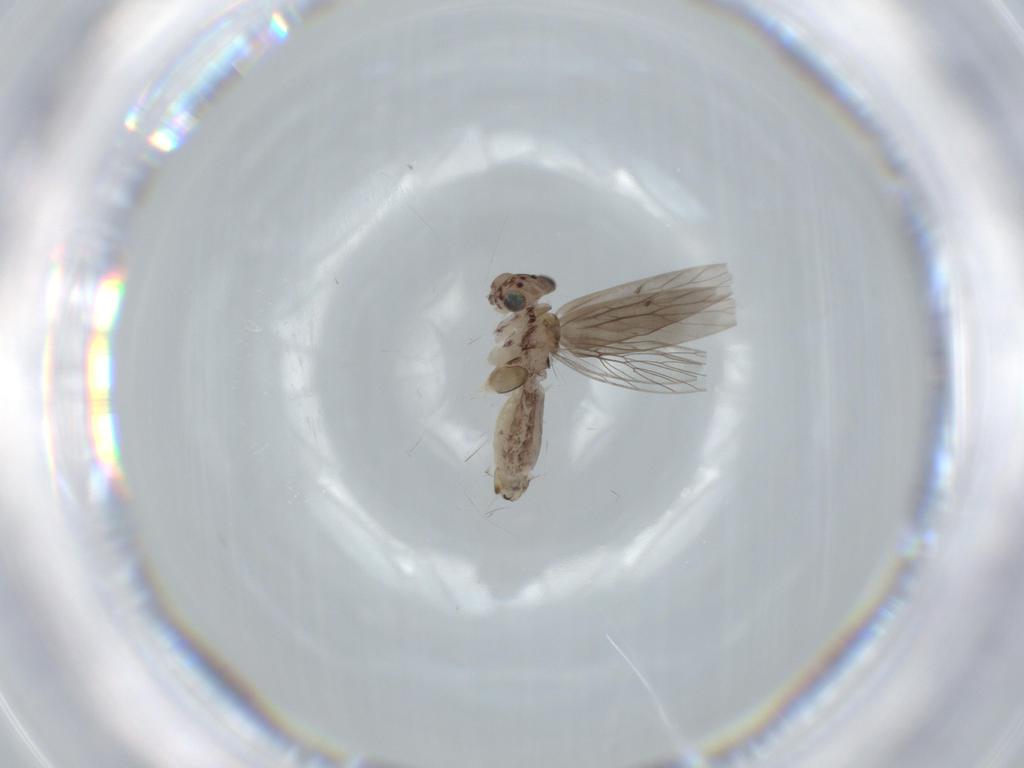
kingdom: Animalia
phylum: Arthropoda
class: Insecta
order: Psocodea
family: Lepidopsocidae
